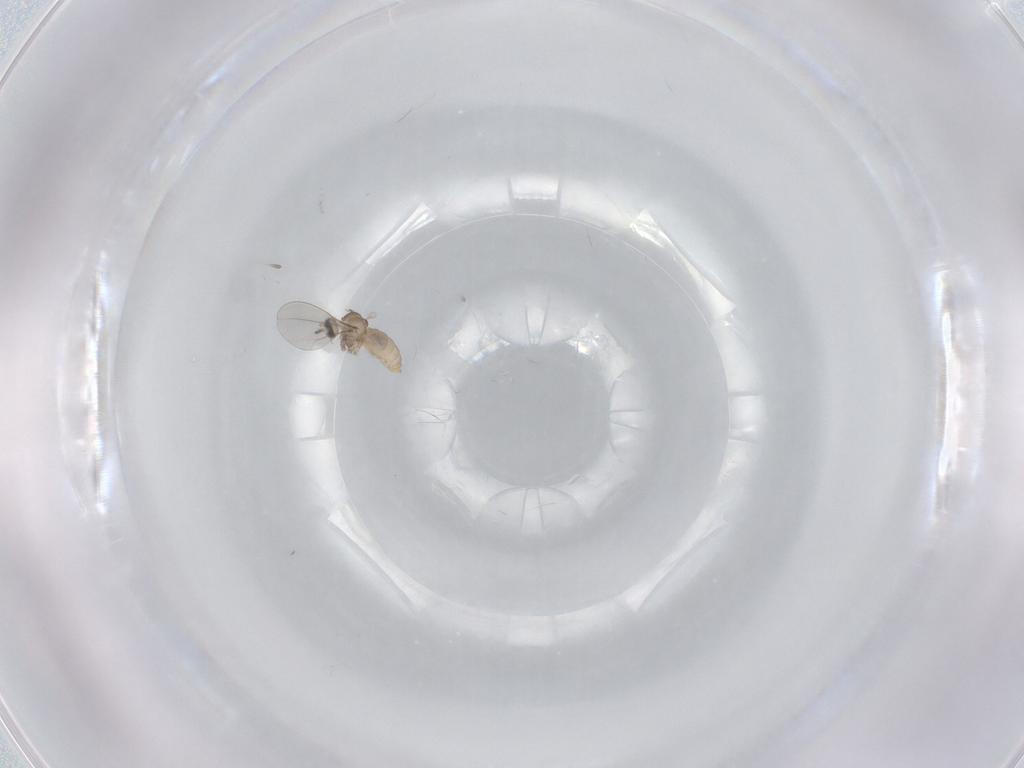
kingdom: Animalia
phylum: Arthropoda
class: Insecta
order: Diptera
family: Cecidomyiidae
